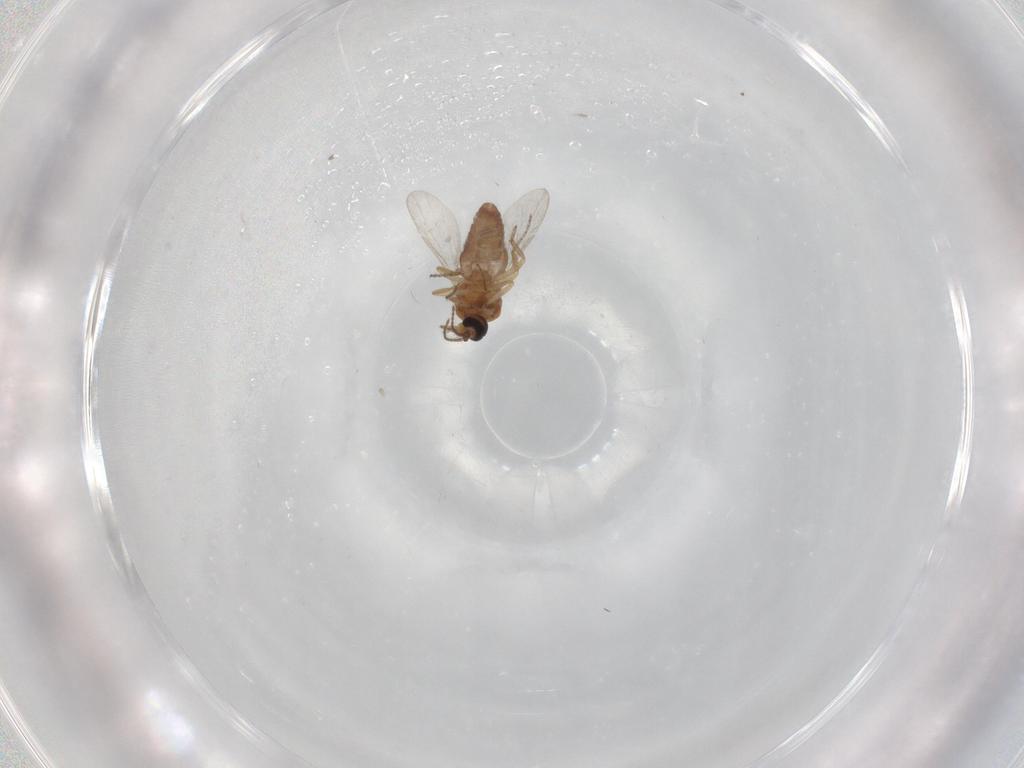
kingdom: Animalia
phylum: Arthropoda
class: Insecta
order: Diptera
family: Ceratopogonidae
